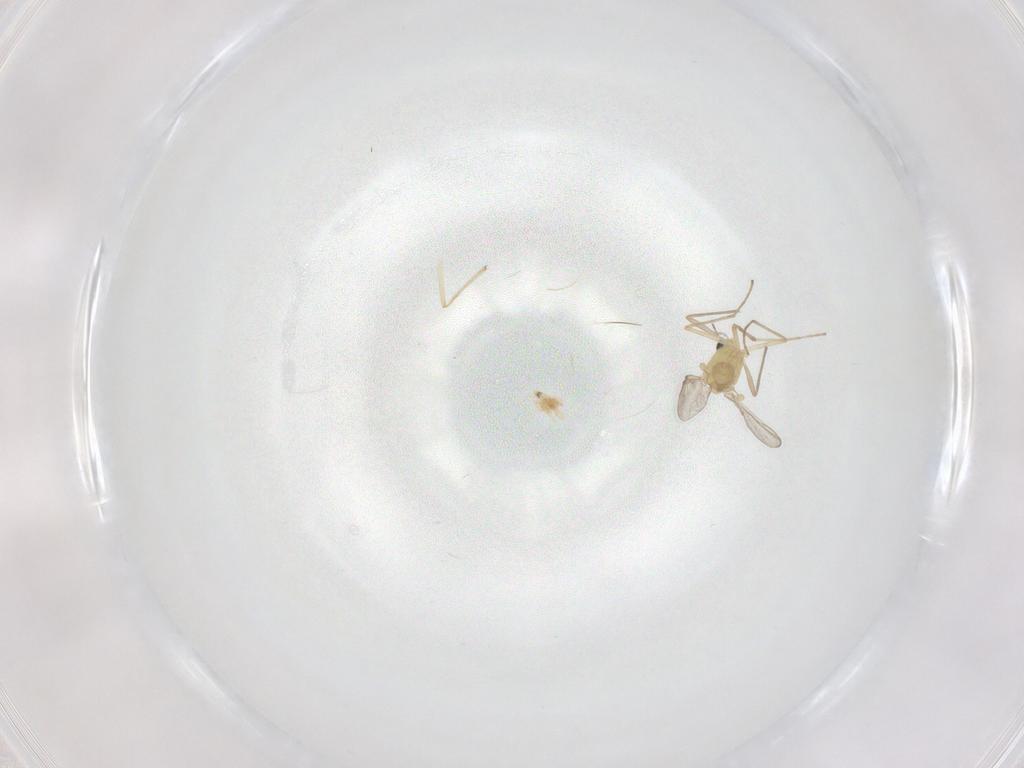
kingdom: Animalia
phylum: Arthropoda
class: Insecta
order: Diptera
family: Chironomidae
